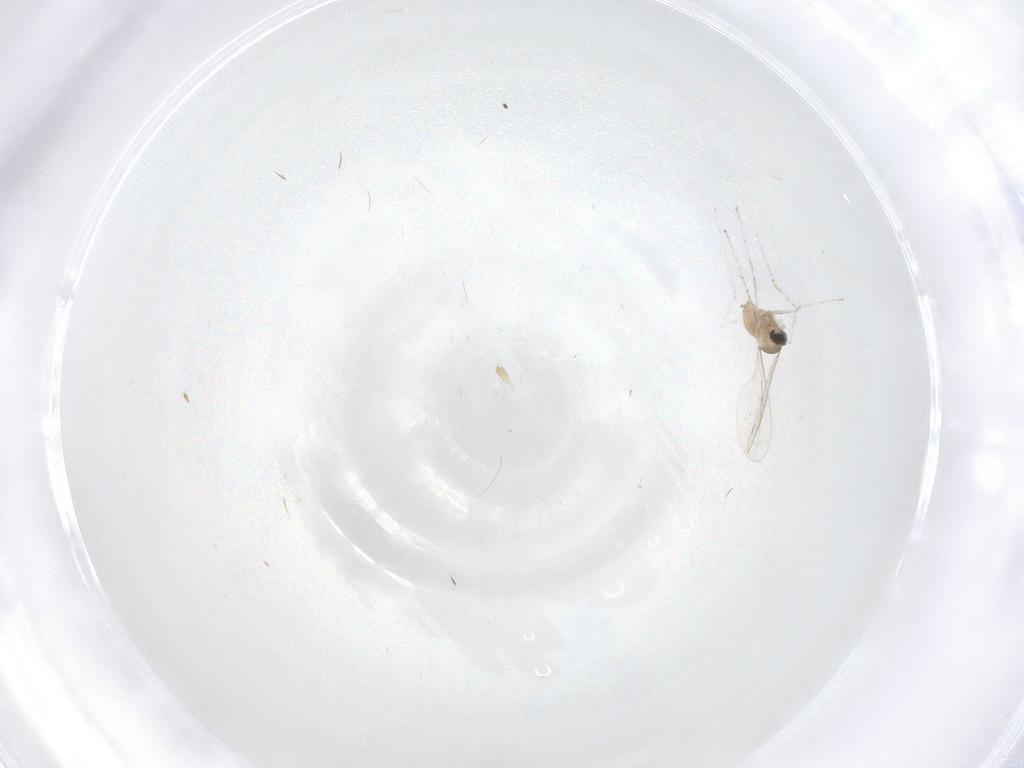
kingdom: Animalia
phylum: Arthropoda
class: Insecta
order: Diptera
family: Cecidomyiidae
